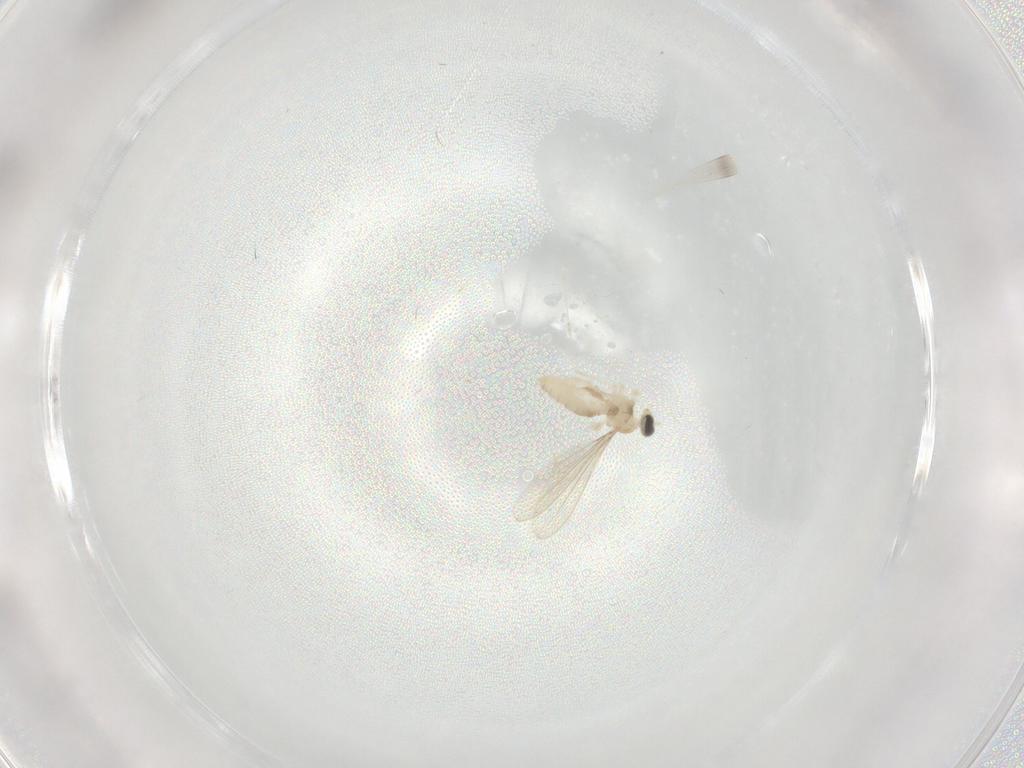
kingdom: Animalia
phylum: Arthropoda
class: Insecta
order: Diptera
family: Cecidomyiidae
